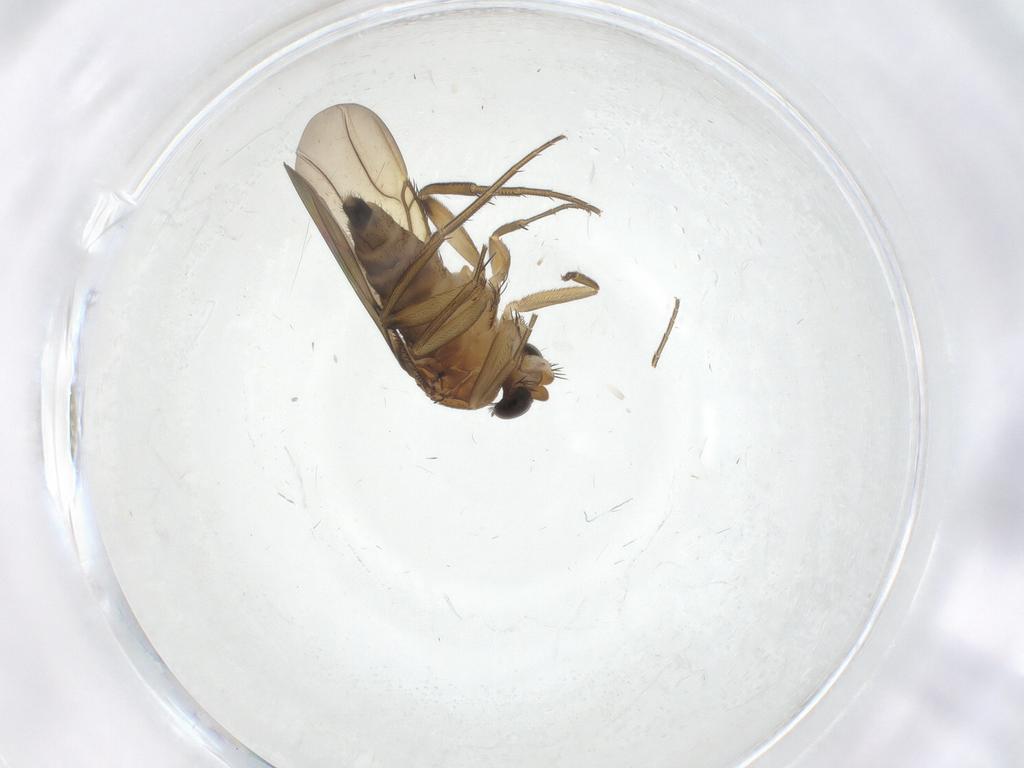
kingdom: Animalia
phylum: Arthropoda
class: Insecta
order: Diptera
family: Phoridae
